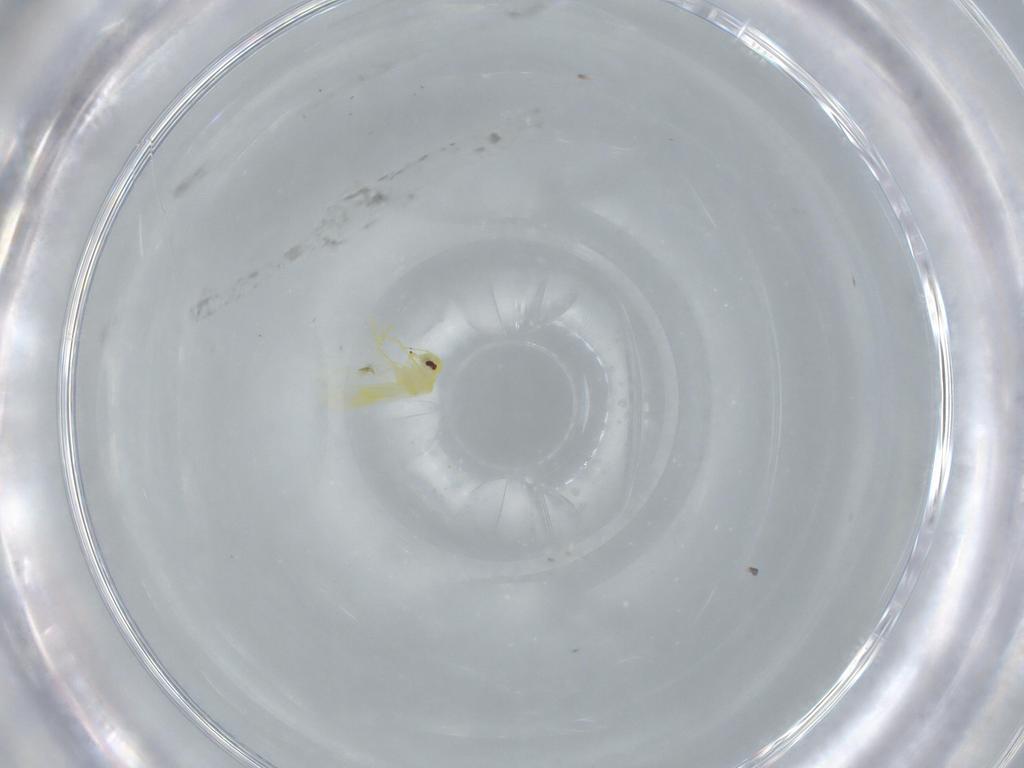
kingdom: Animalia
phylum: Arthropoda
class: Insecta
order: Hemiptera
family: Aleyrodidae
